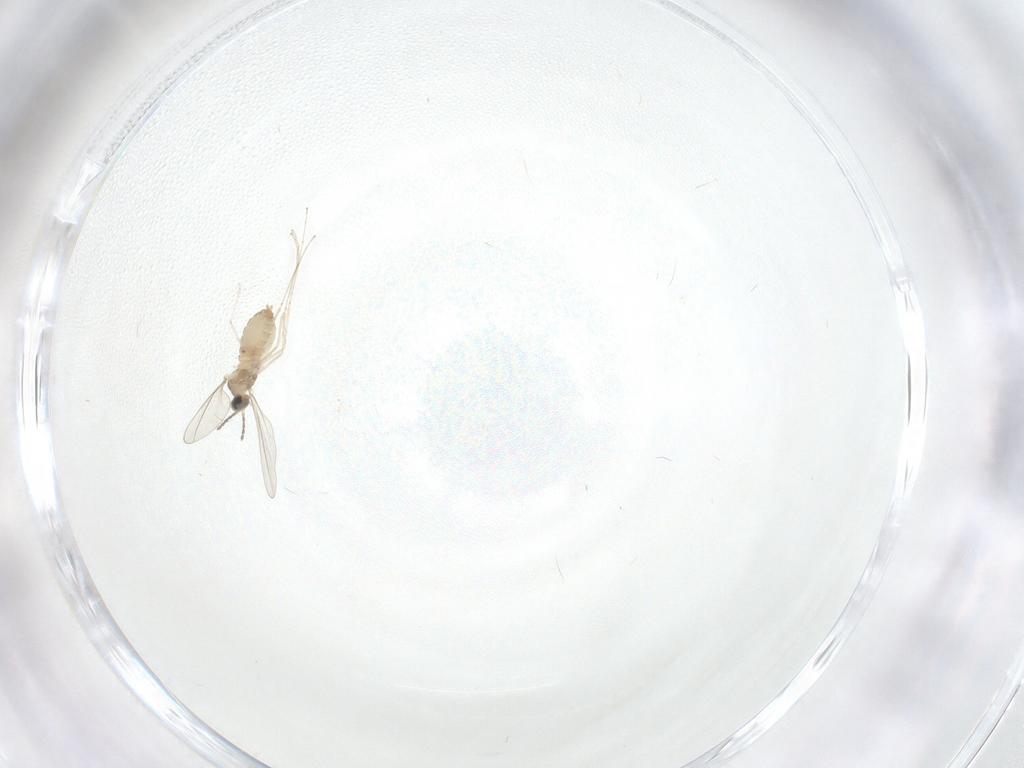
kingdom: Animalia
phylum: Arthropoda
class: Insecta
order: Diptera
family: Cecidomyiidae
